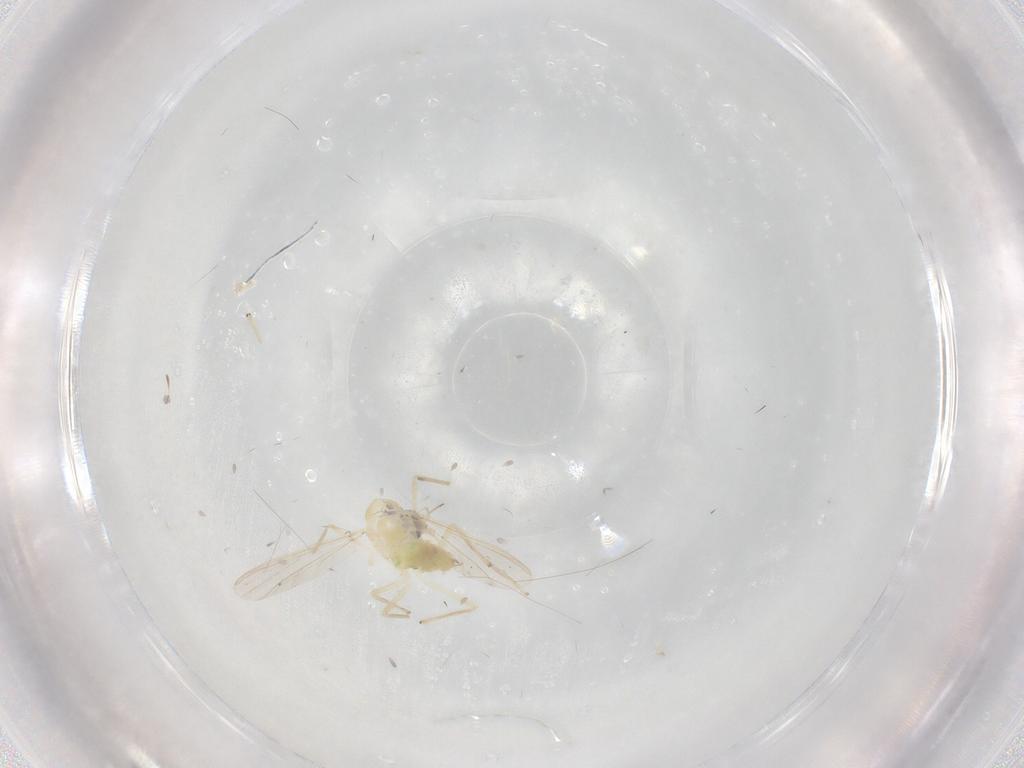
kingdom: Animalia
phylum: Arthropoda
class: Insecta
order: Diptera
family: Chironomidae
